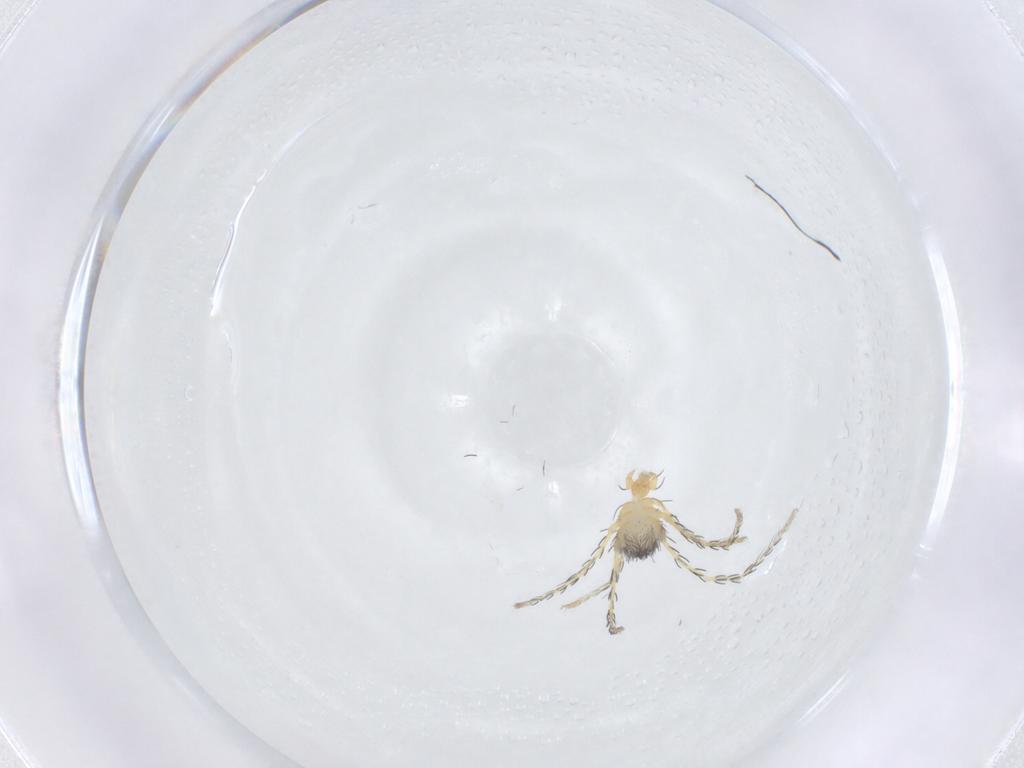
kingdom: Animalia
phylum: Arthropoda
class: Arachnida
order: Trombidiformes
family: Erythraeidae
